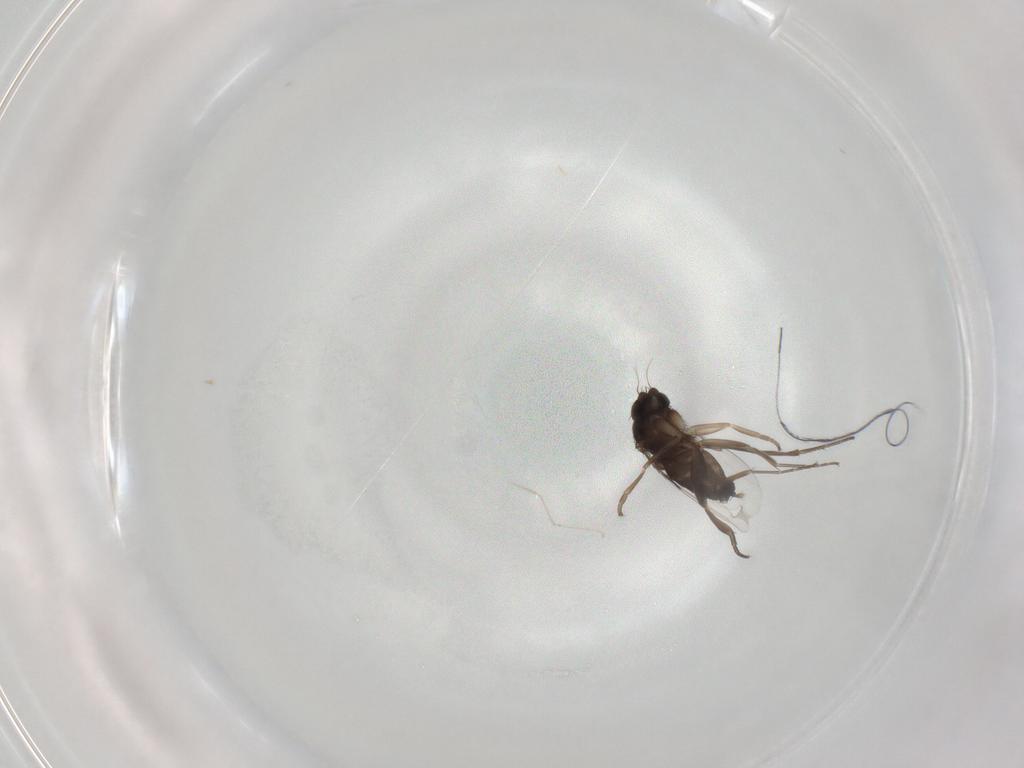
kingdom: Animalia
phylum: Arthropoda
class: Insecta
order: Diptera
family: Phoridae
